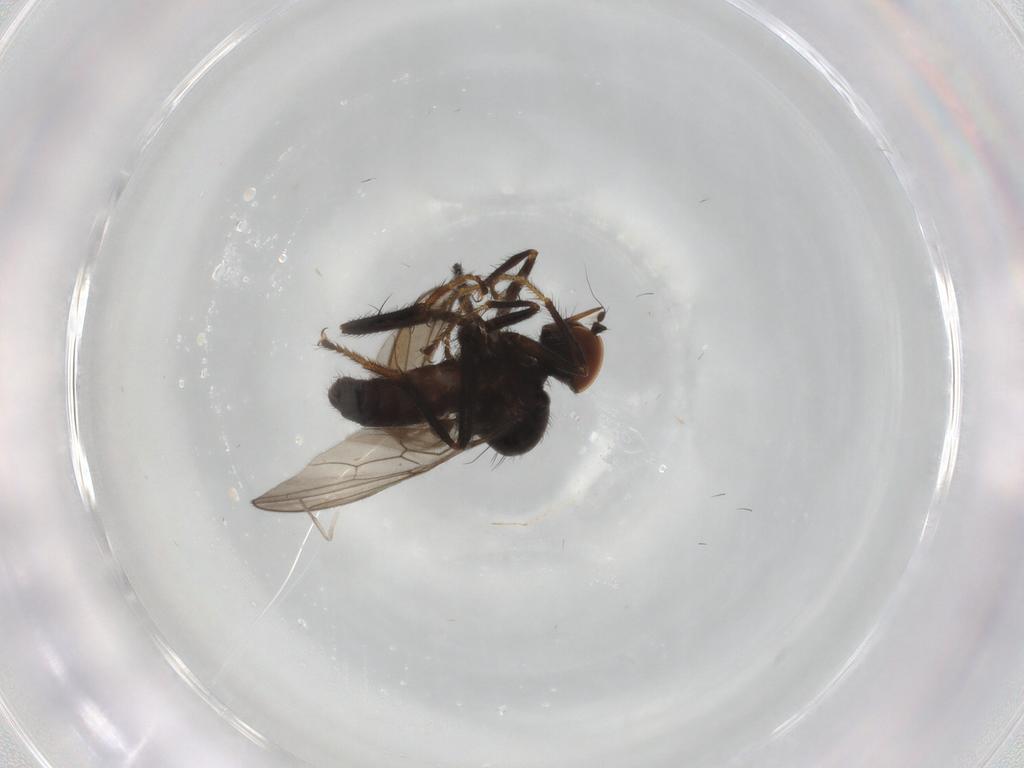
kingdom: Animalia
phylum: Arthropoda
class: Insecta
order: Diptera
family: Hybotidae
